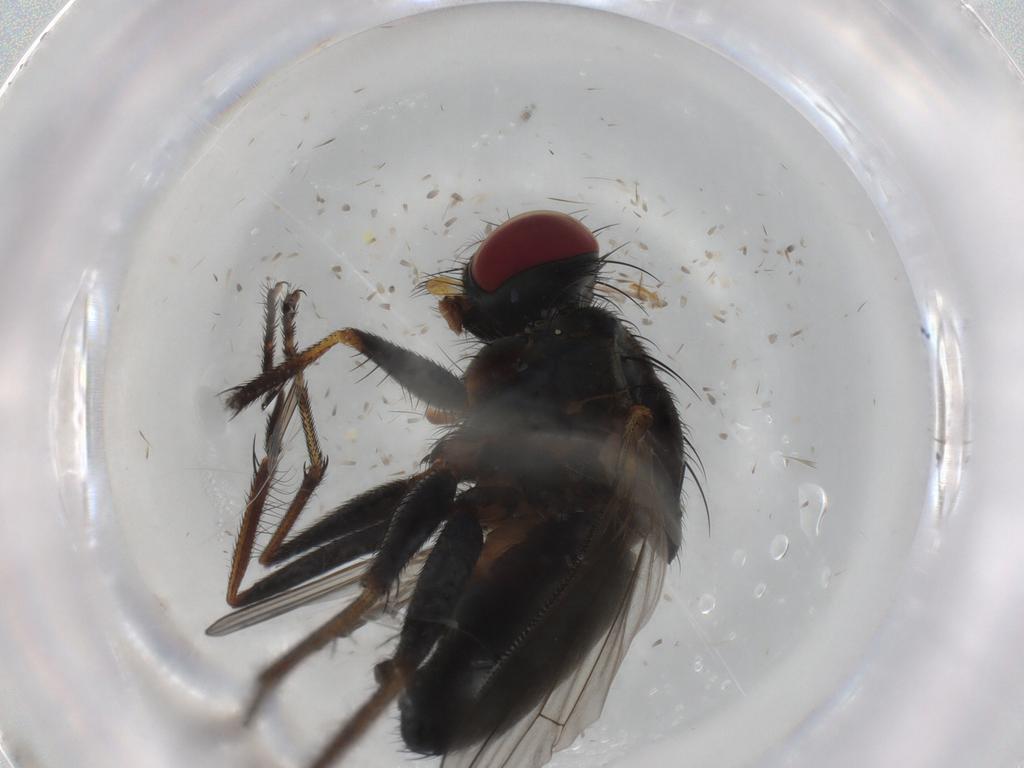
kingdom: Animalia
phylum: Arthropoda
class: Insecta
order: Diptera
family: Muscidae
